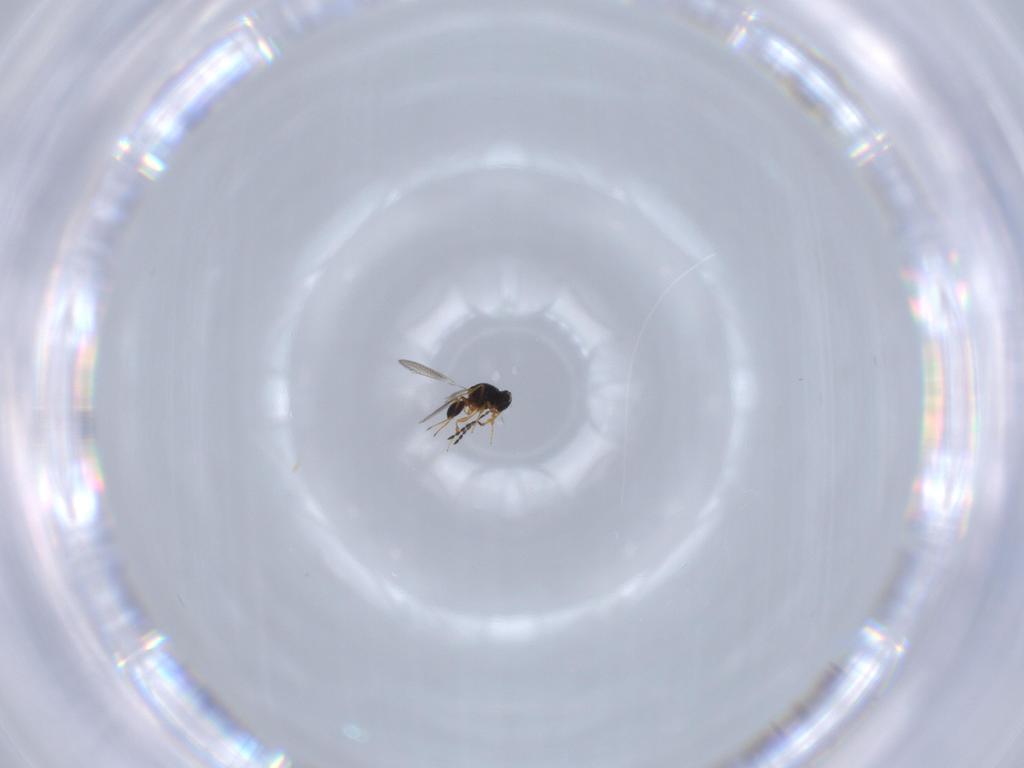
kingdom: Animalia
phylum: Arthropoda
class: Insecta
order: Hymenoptera
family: Platygastridae
